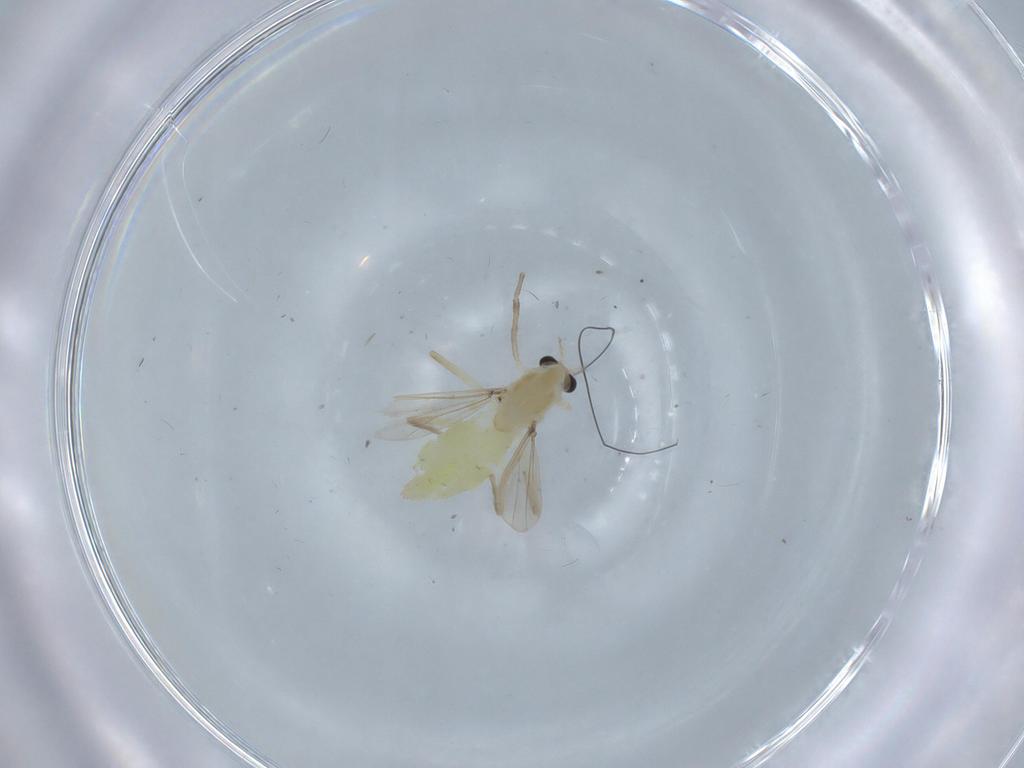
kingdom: Animalia
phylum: Arthropoda
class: Insecta
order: Diptera
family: Chironomidae
